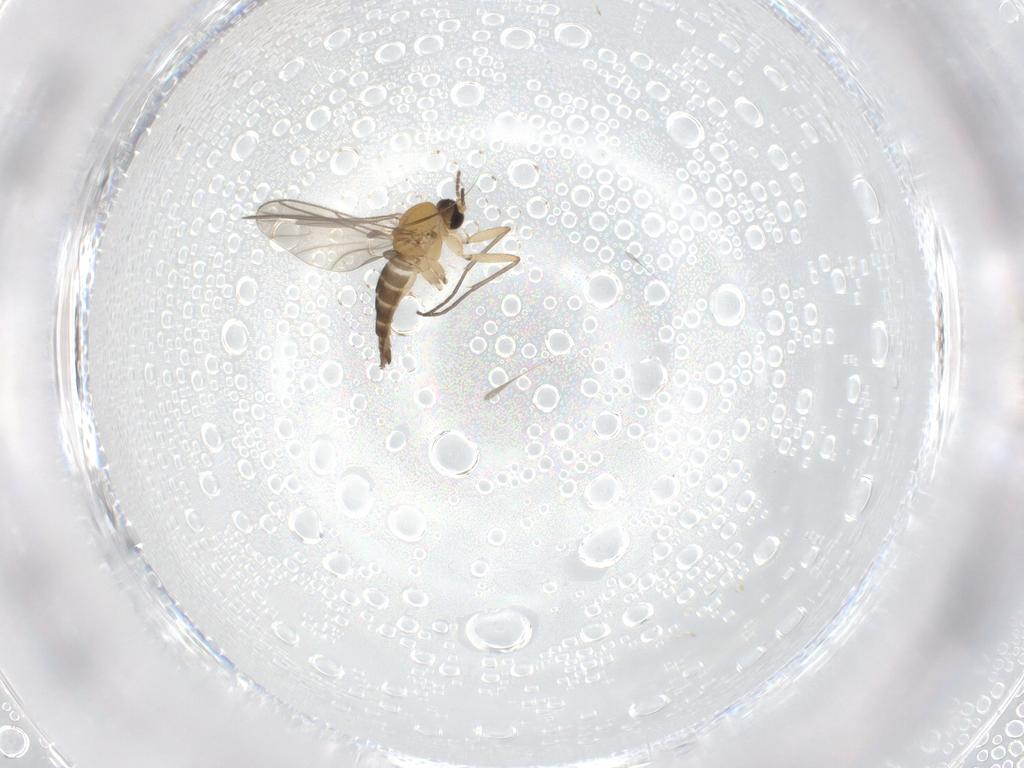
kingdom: Animalia
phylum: Arthropoda
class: Insecta
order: Diptera
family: Sciaridae
